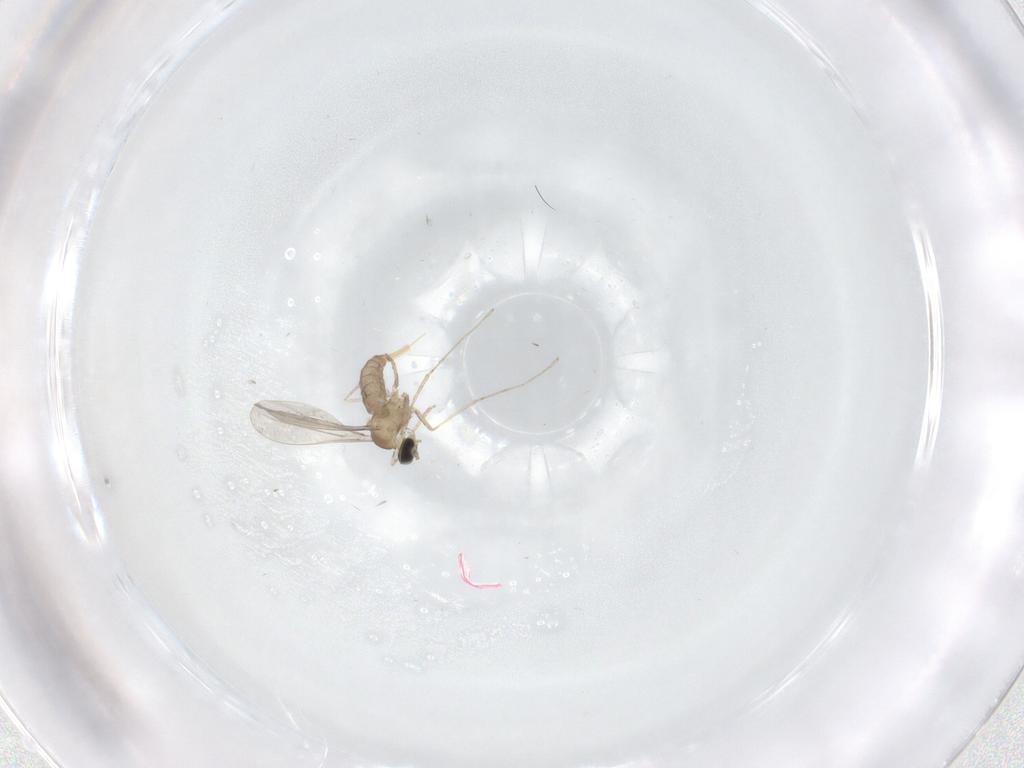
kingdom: Animalia
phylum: Arthropoda
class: Insecta
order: Diptera
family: Cecidomyiidae
